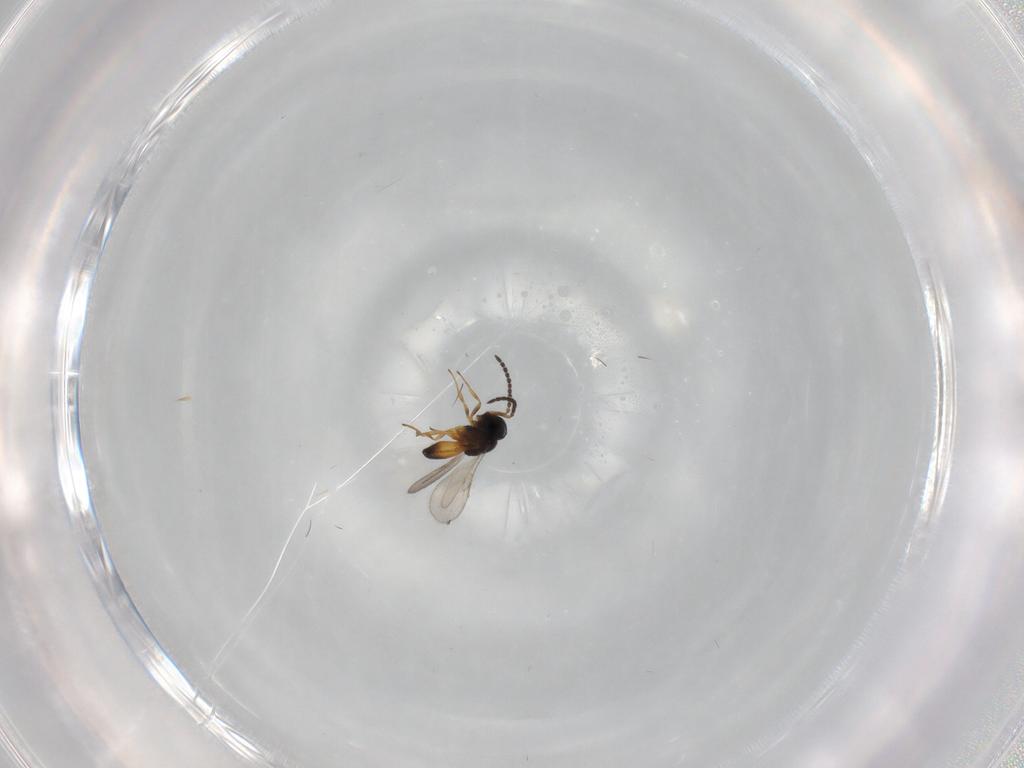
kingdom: Animalia
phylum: Arthropoda
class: Insecta
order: Hymenoptera
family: Scelionidae
